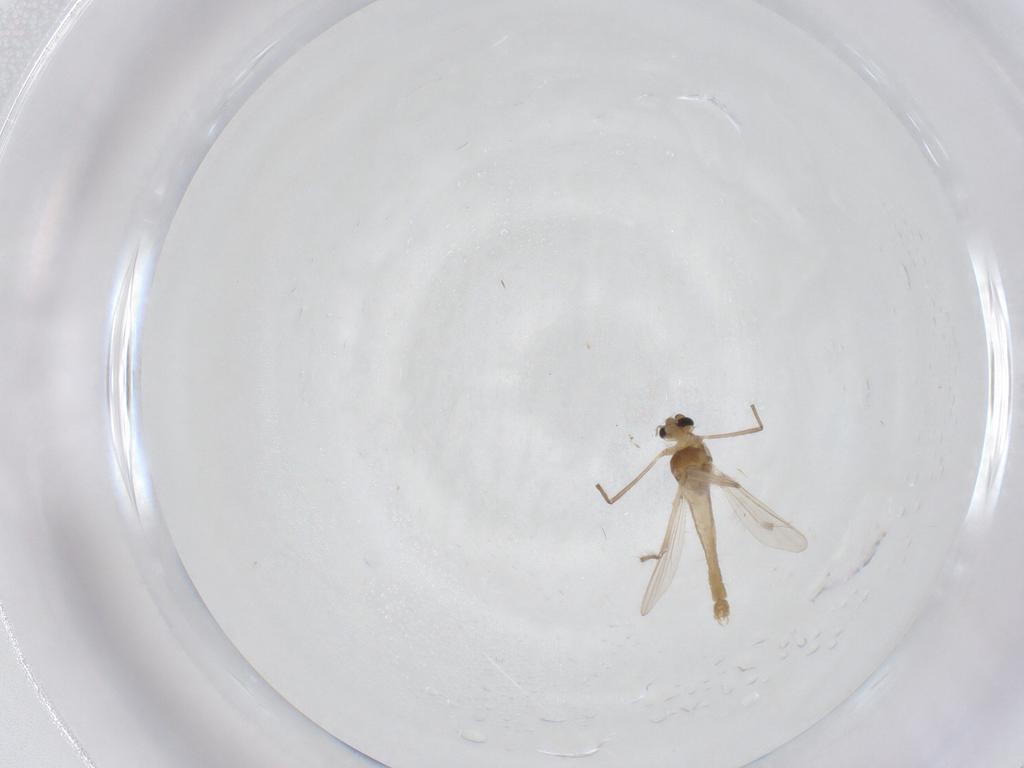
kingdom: Animalia
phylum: Arthropoda
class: Insecta
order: Diptera
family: Chironomidae
